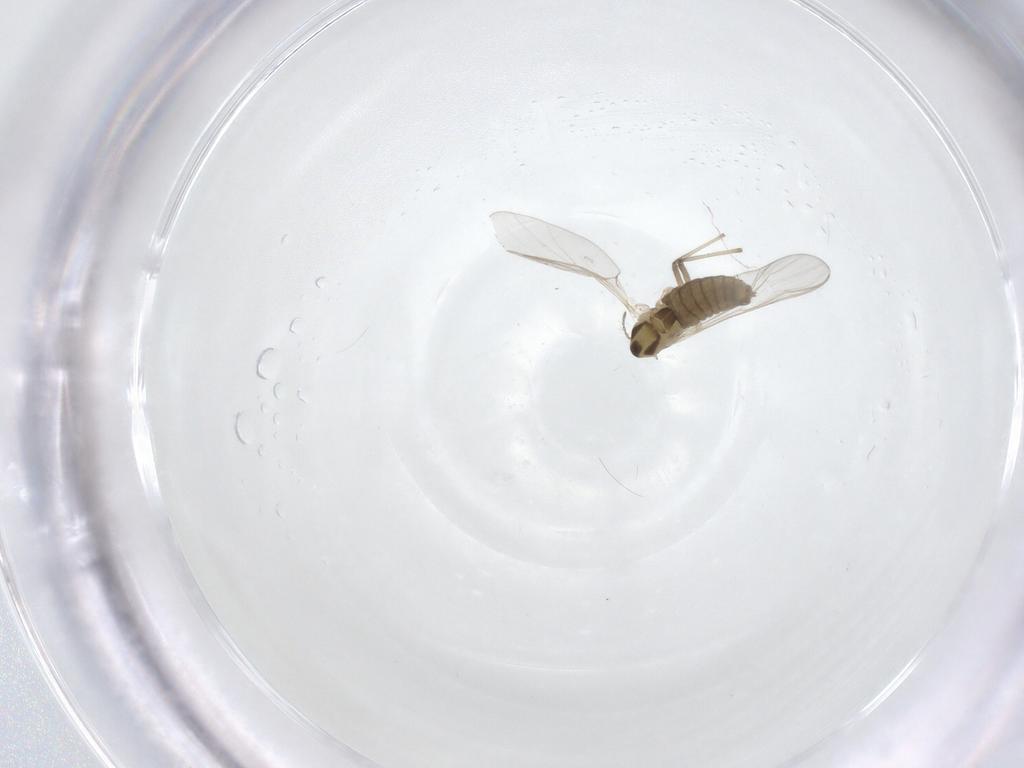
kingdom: Animalia
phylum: Arthropoda
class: Insecta
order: Diptera
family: Chironomidae
